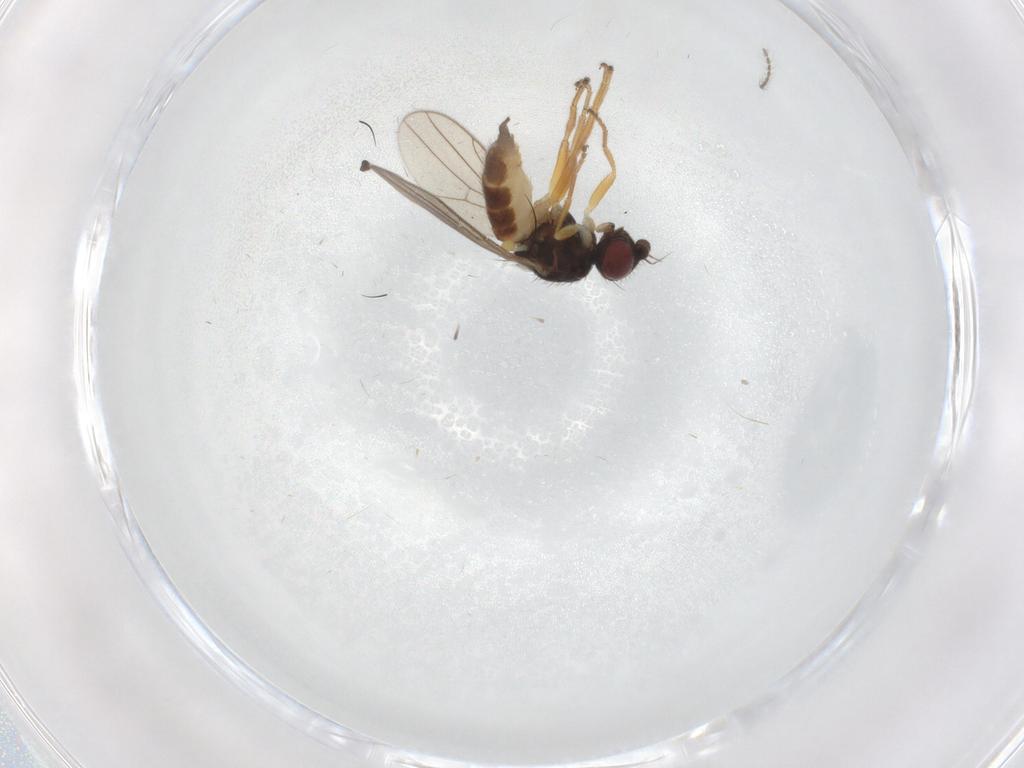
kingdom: Animalia
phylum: Arthropoda
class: Insecta
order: Diptera
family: Chloropidae
